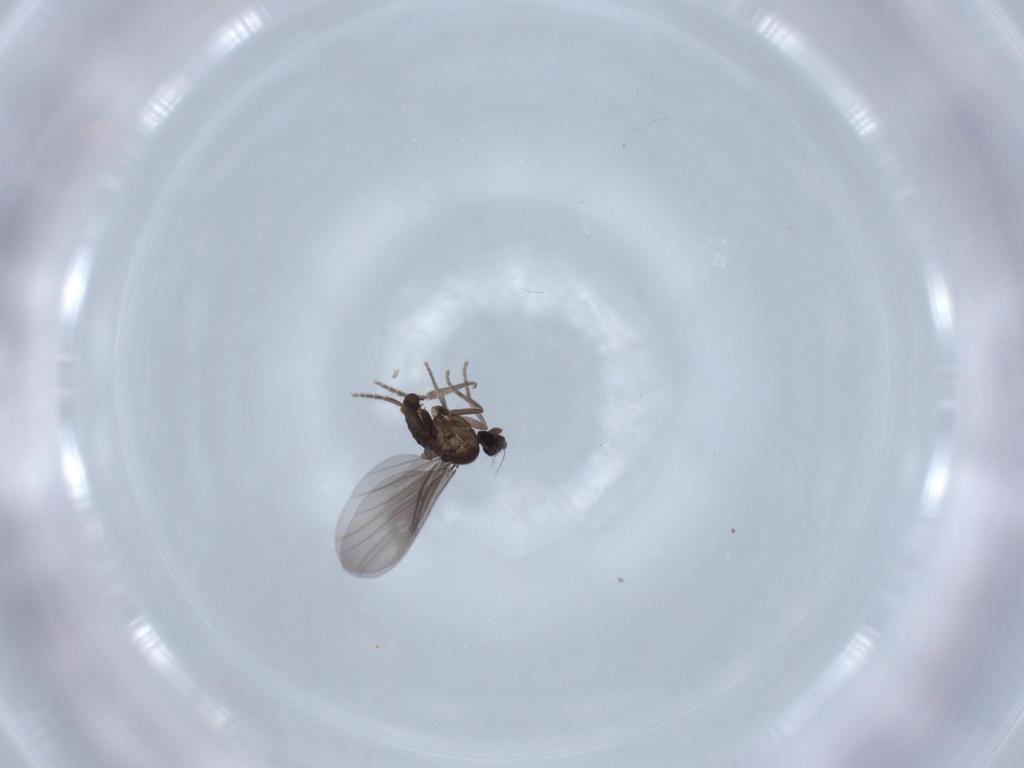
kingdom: Animalia
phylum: Arthropoda
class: Insecta
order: Diptera
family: Phoridae
